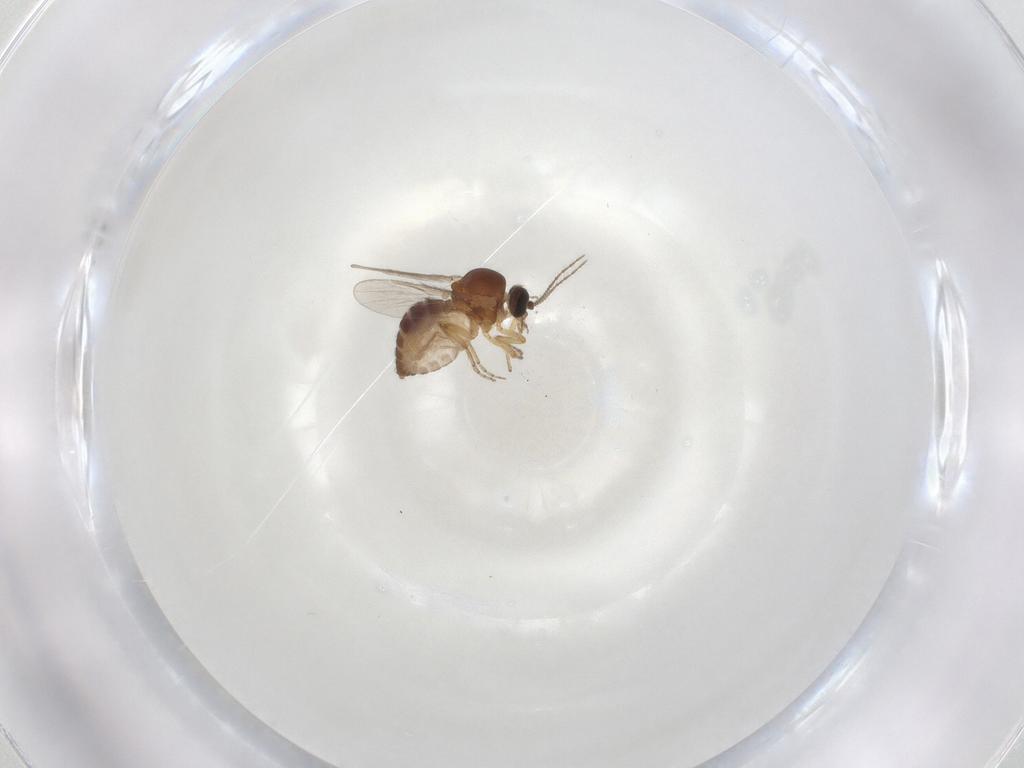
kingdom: Animalia
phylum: Arthropoda
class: Insecta
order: Diptera
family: Ceratopogonidae
